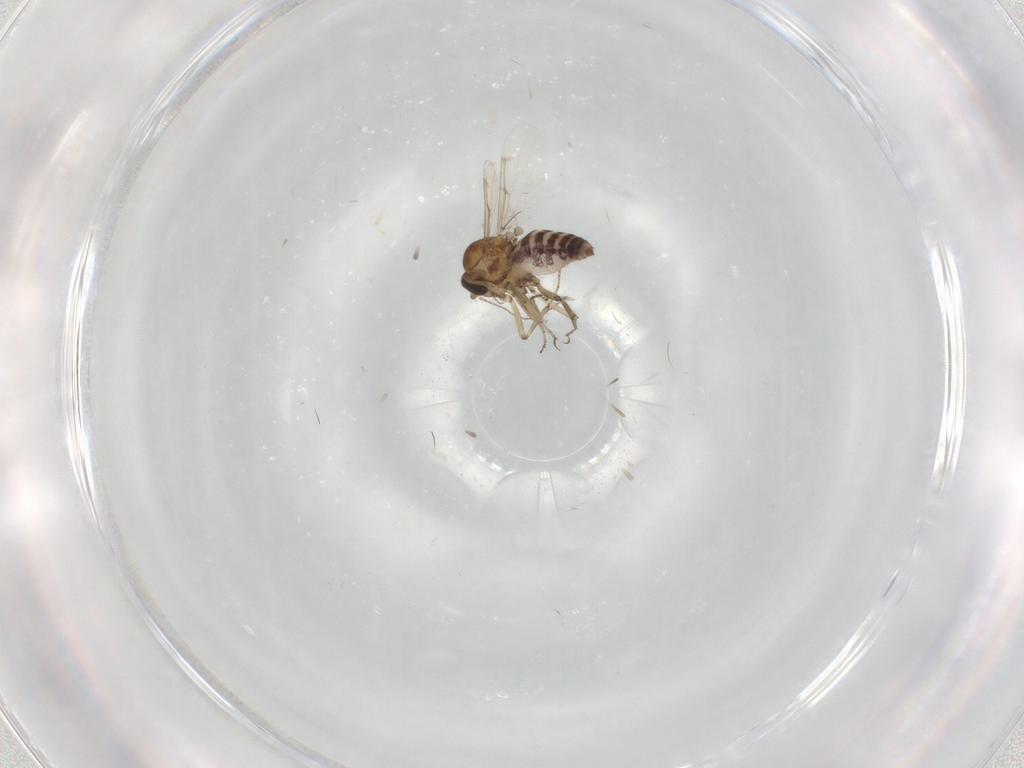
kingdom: Animalia
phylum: Arthropoda
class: Insecta
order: Diptera
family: Ceratopogonidae
